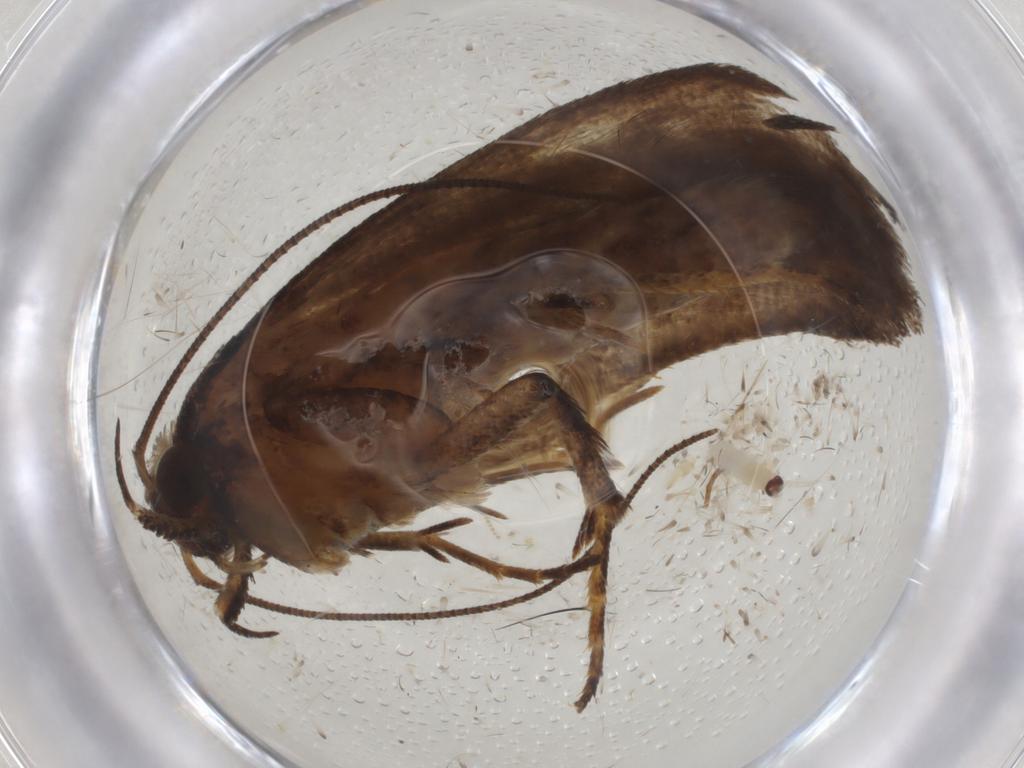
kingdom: Animalia
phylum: Arthropoda
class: Insecta
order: Lepidoptera
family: Gelechiidae
